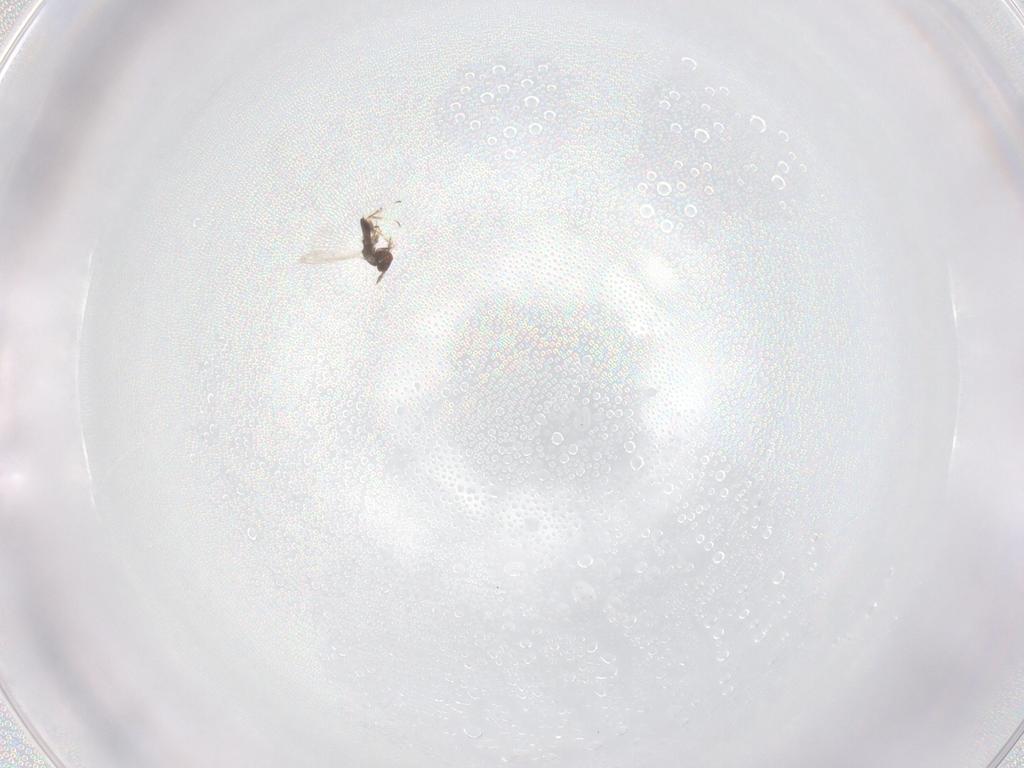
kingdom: Animalia
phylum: Arthropoda
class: Insecta
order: Hymenoptera
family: Eulophidae
